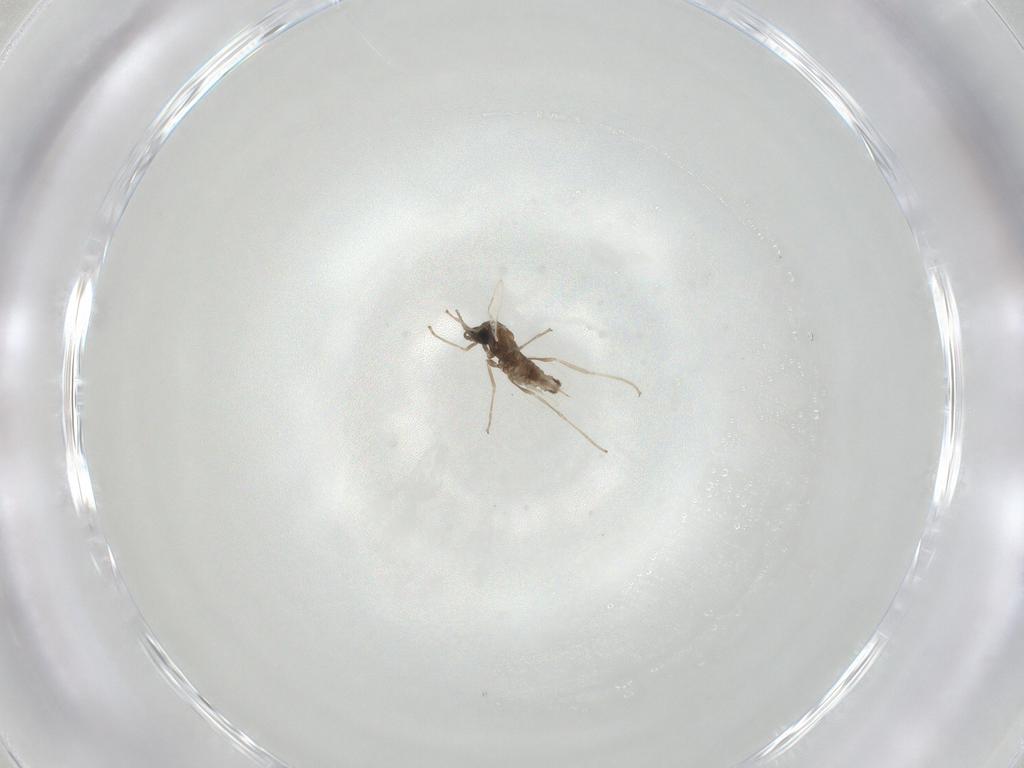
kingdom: Animalia
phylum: Arthropoda
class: Insecta
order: Diptera
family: Cecidomyiidae
